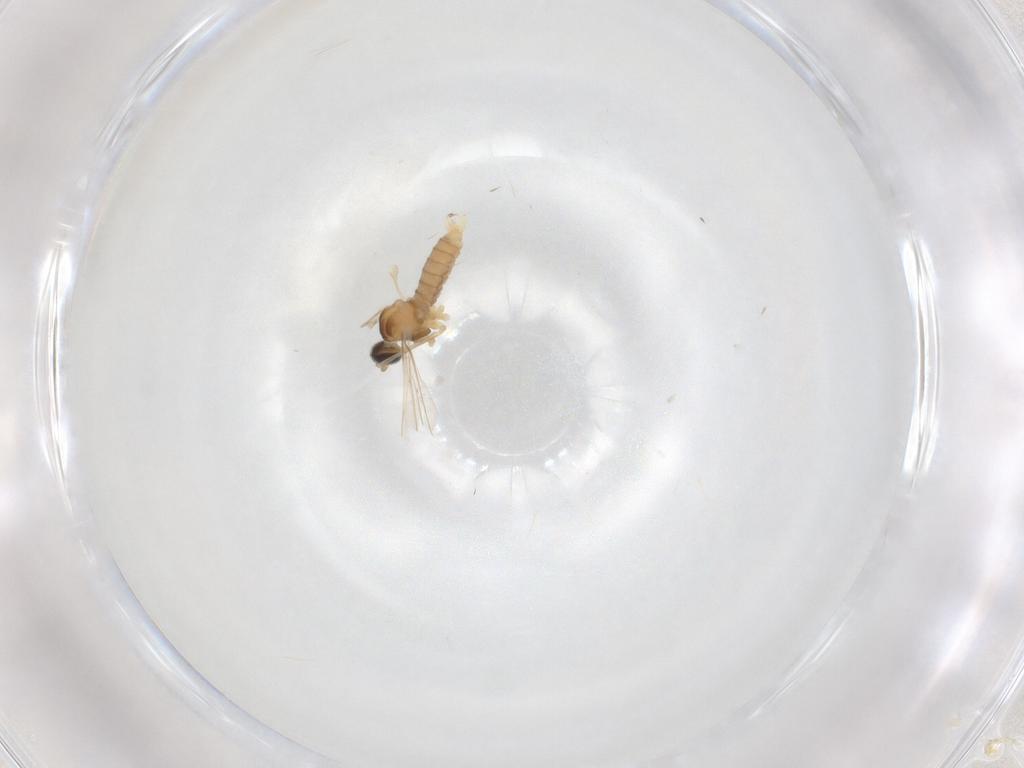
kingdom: Animalia
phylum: Arthropoda
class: Insecta
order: Diptera
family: Cecidomyiidae
